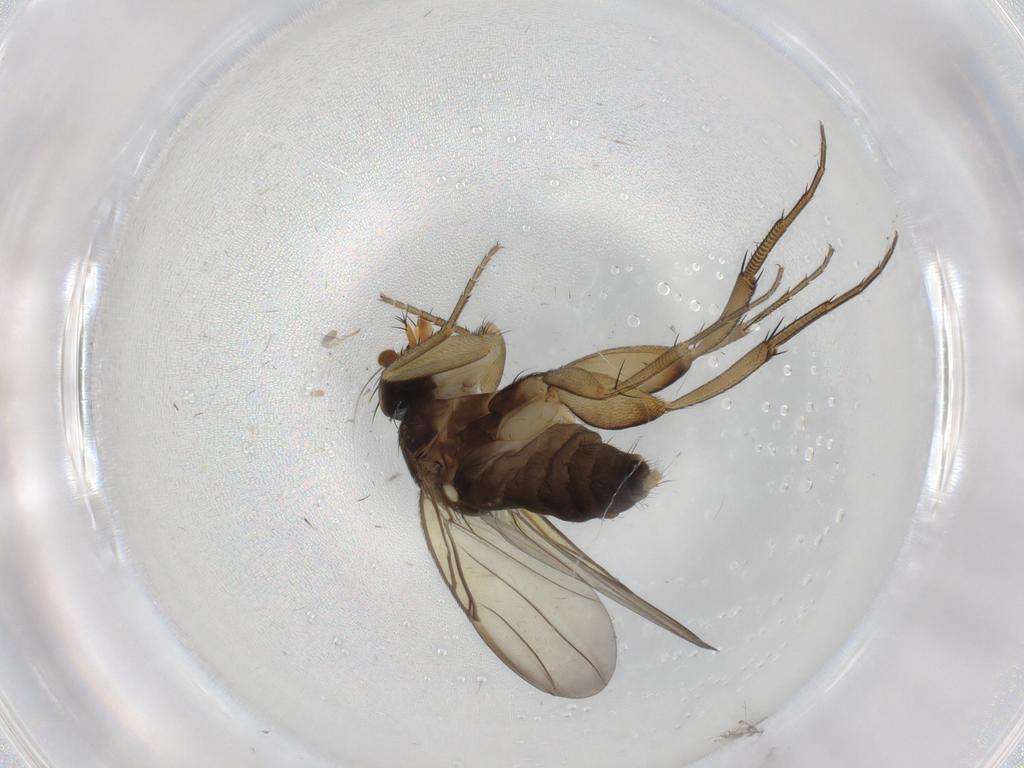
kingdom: Animalia
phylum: Arthropoda
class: Insecta
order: Diptera
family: Phoridae
